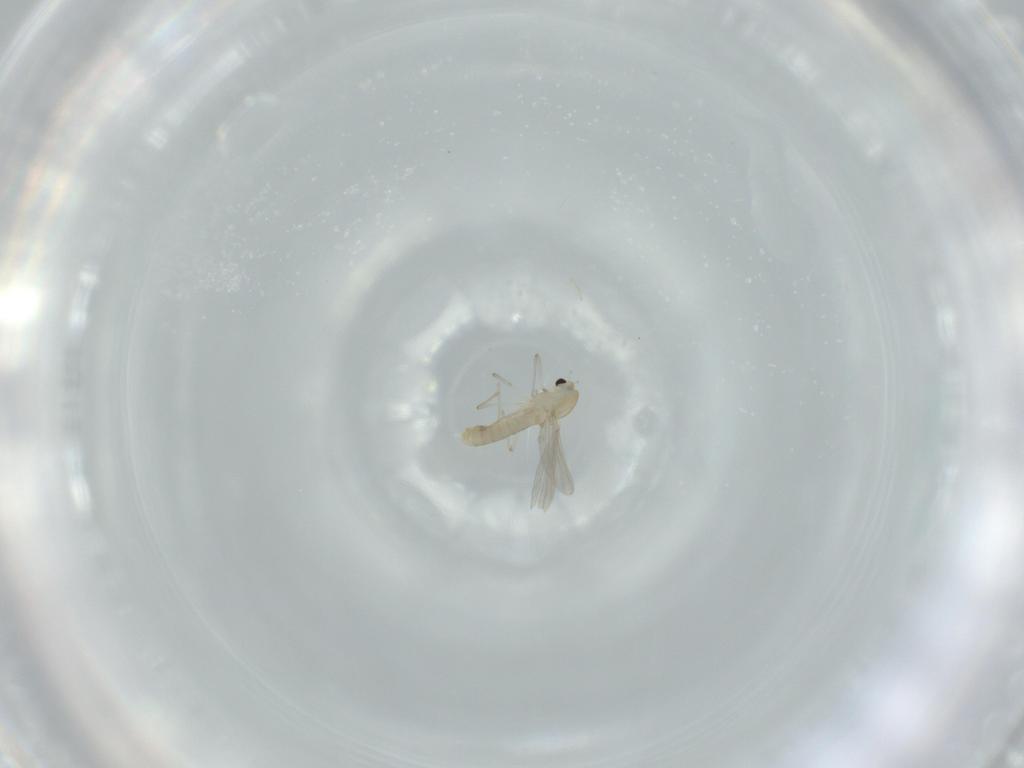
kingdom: Animalia
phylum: Arthropoda
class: Insecta
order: Diptera
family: Chironomidae
